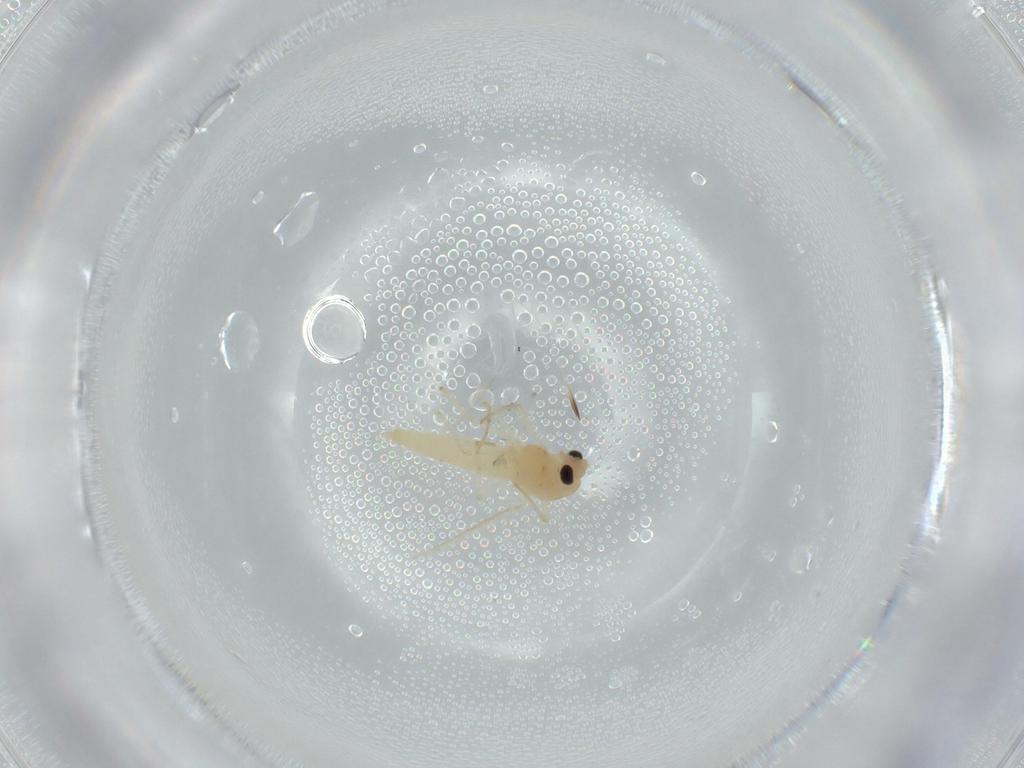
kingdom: Animalia
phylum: Arthropoda
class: Insecta
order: Diptera
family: Chironomidae
